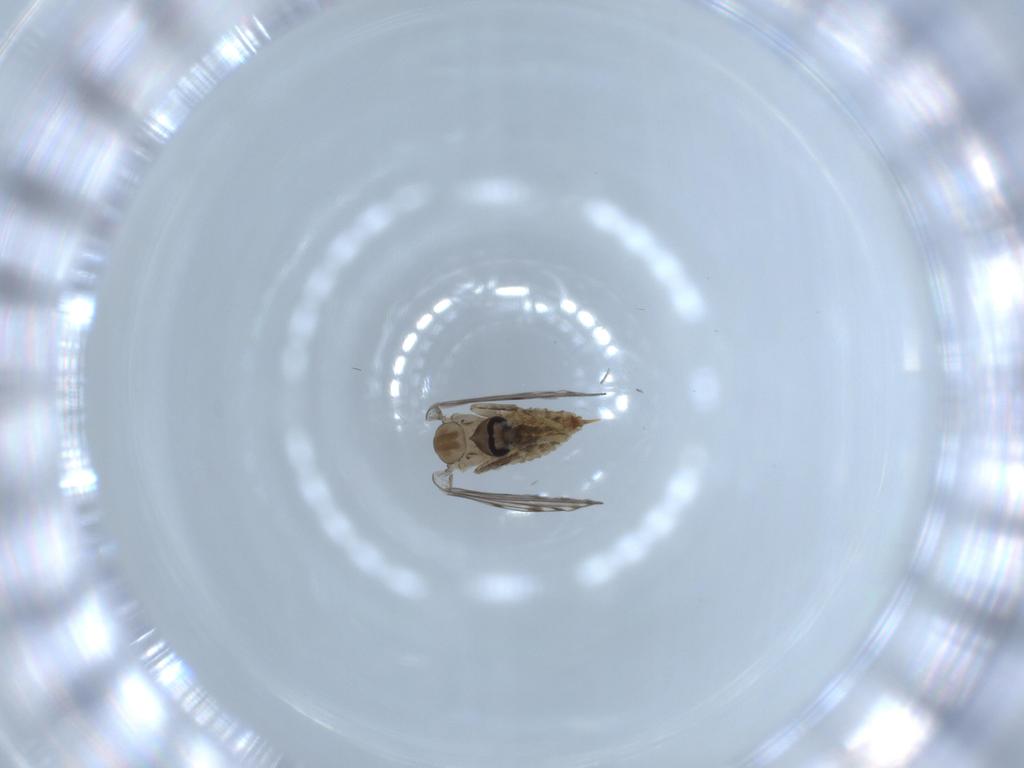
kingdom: Animalia
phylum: Arthropoda
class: Insecta
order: Diptera
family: Psychodidae
